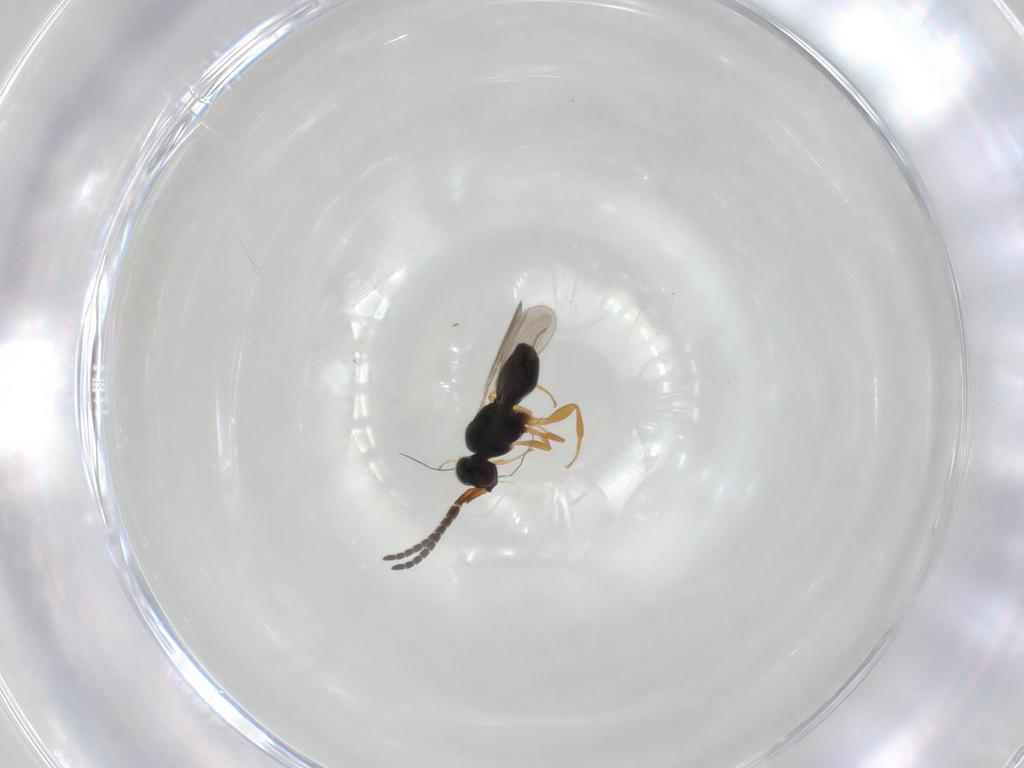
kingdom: Animalia
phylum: Arthropoda
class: Insecta
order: Hymenoptera
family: Ceraphronidae
